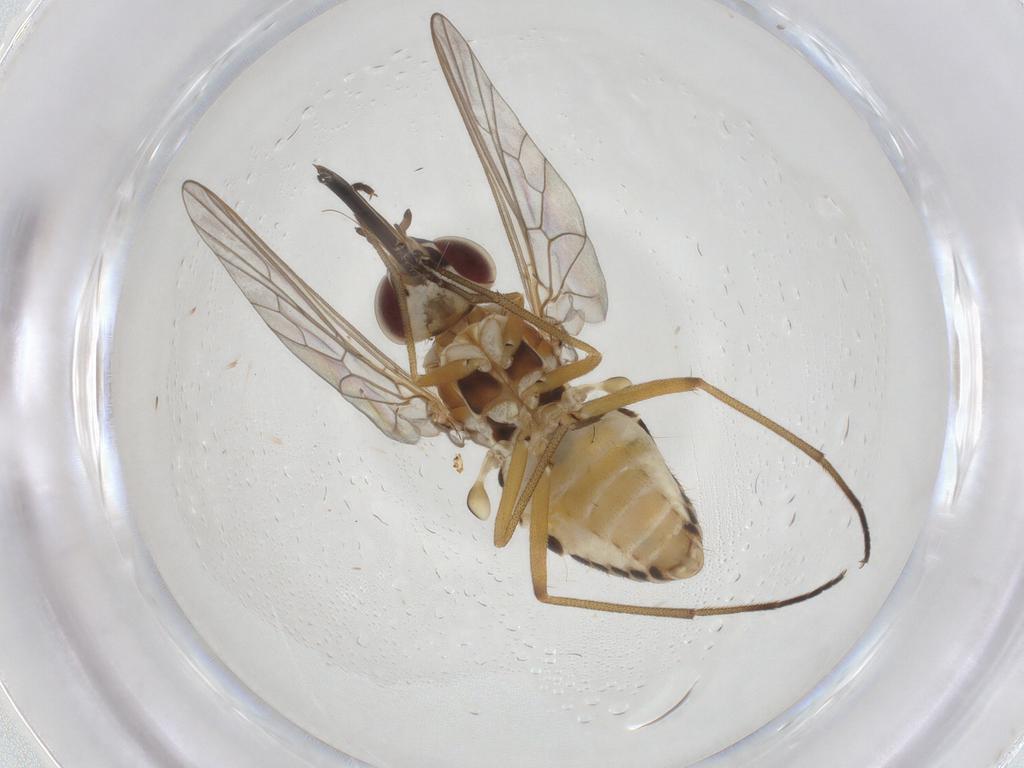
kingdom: Animalia
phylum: Arthropoda
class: Insecta
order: Diptera
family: Bombyliidae
